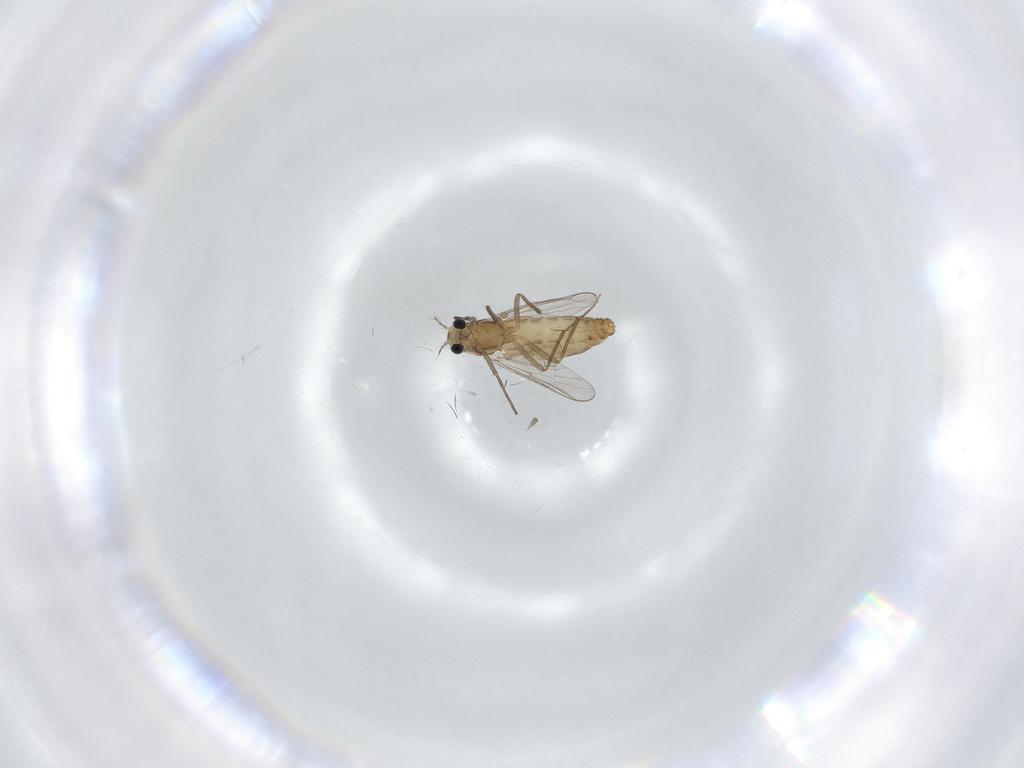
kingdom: Animalia
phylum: Arthropoda
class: Insecta
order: Diptera
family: Chironomidae
